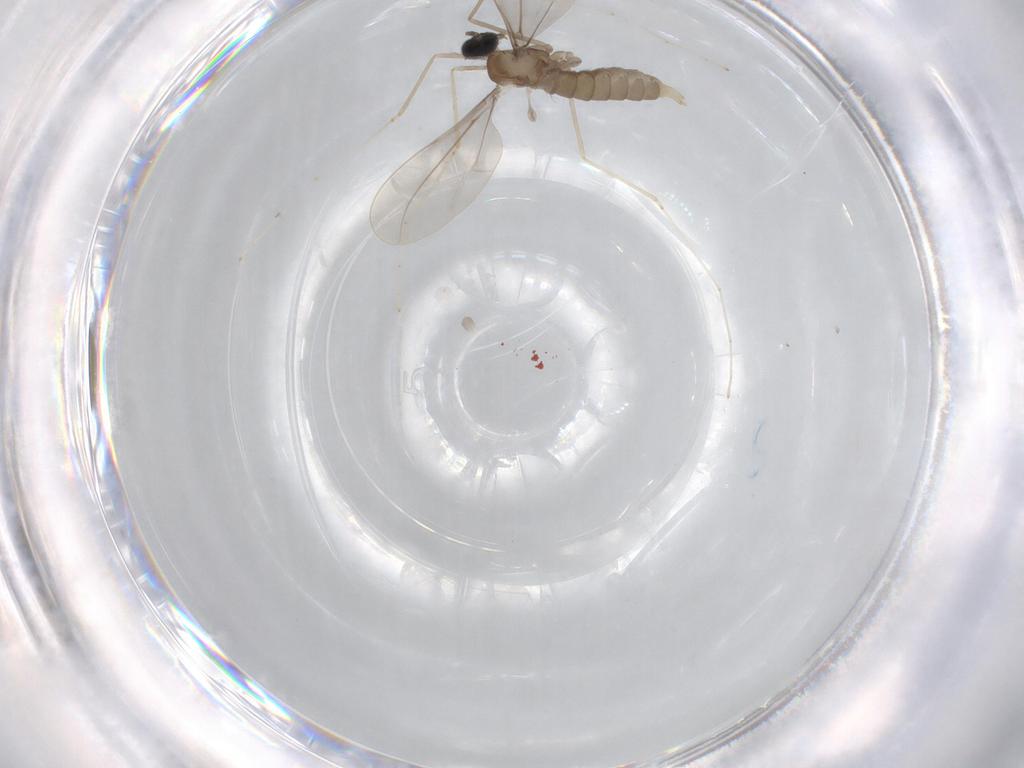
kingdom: Animalia
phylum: Arthropoda
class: Insecta
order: Diptera
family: Cecidomyiidae
